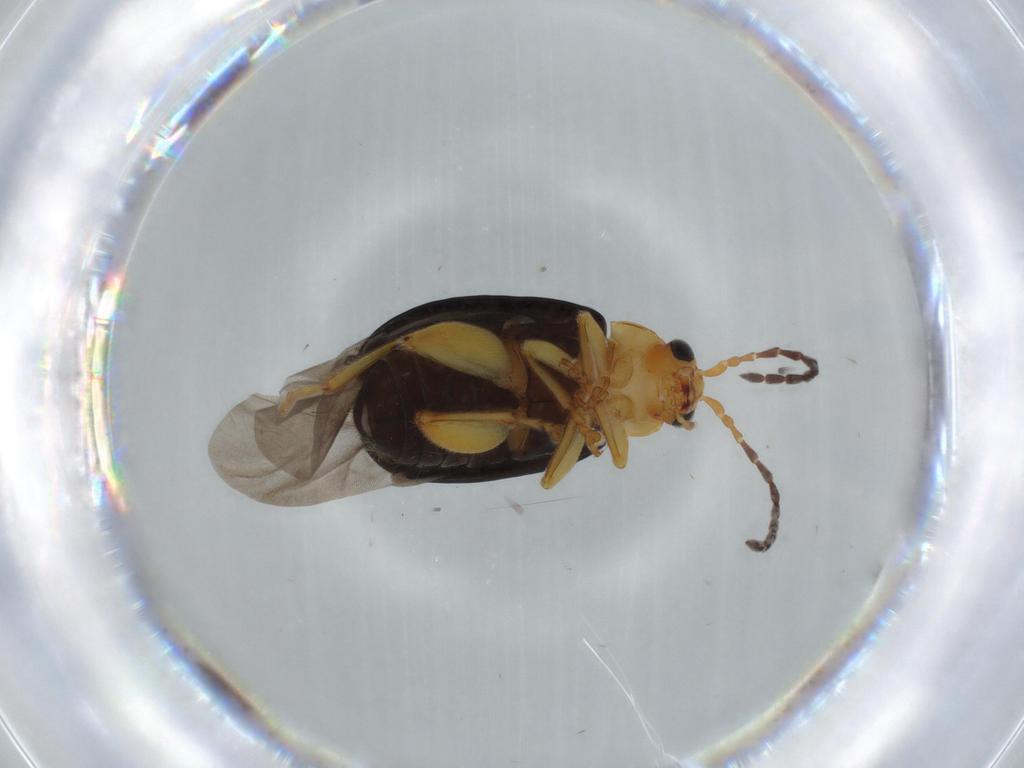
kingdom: Animalia
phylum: Arthropoda
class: Insecta
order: Coleoptera
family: Chrysomelidae
